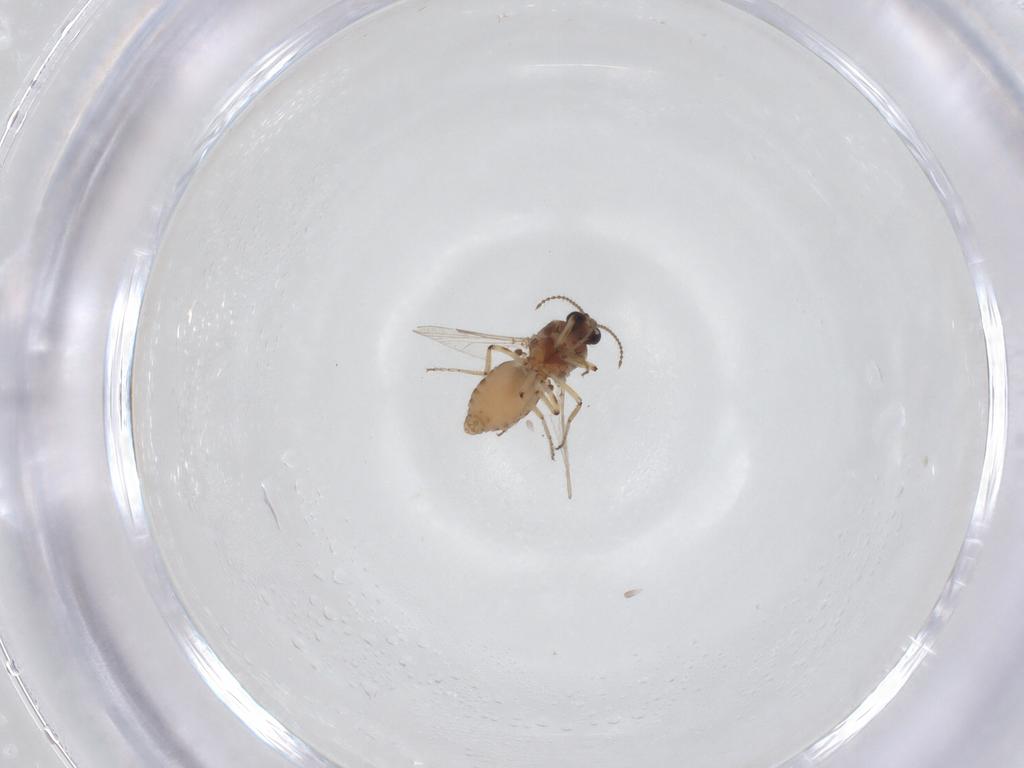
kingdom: Animalia
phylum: Arthropoda
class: Insecta
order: Diptera
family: Ceratopogonidae
